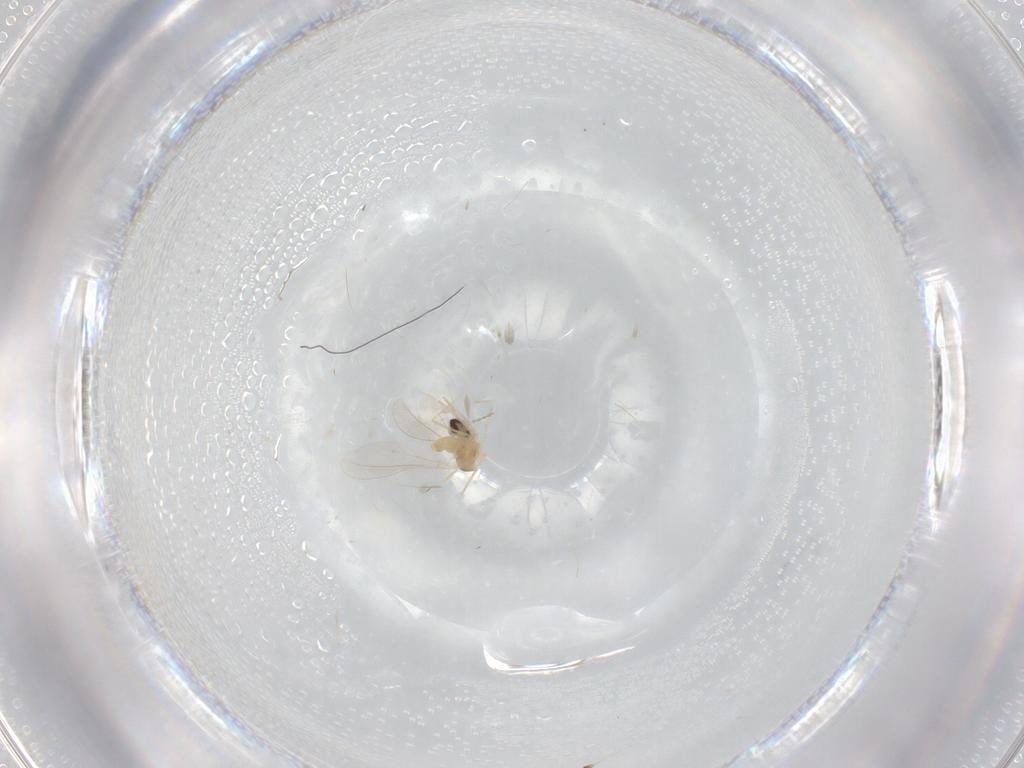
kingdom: Animalia
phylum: Arthropoda
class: Insecta
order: Diptera
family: Cecidomyiidae
